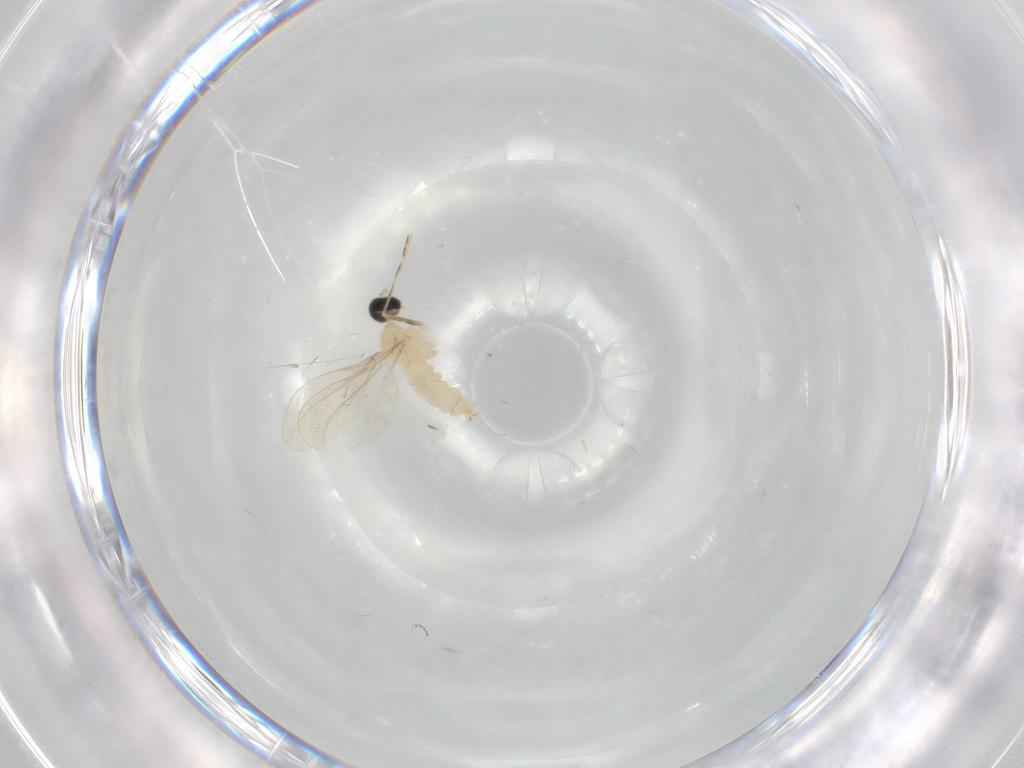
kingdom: Animalia
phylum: Arthropoda
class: Insecta
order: Diptera
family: Cecidomyiidae
